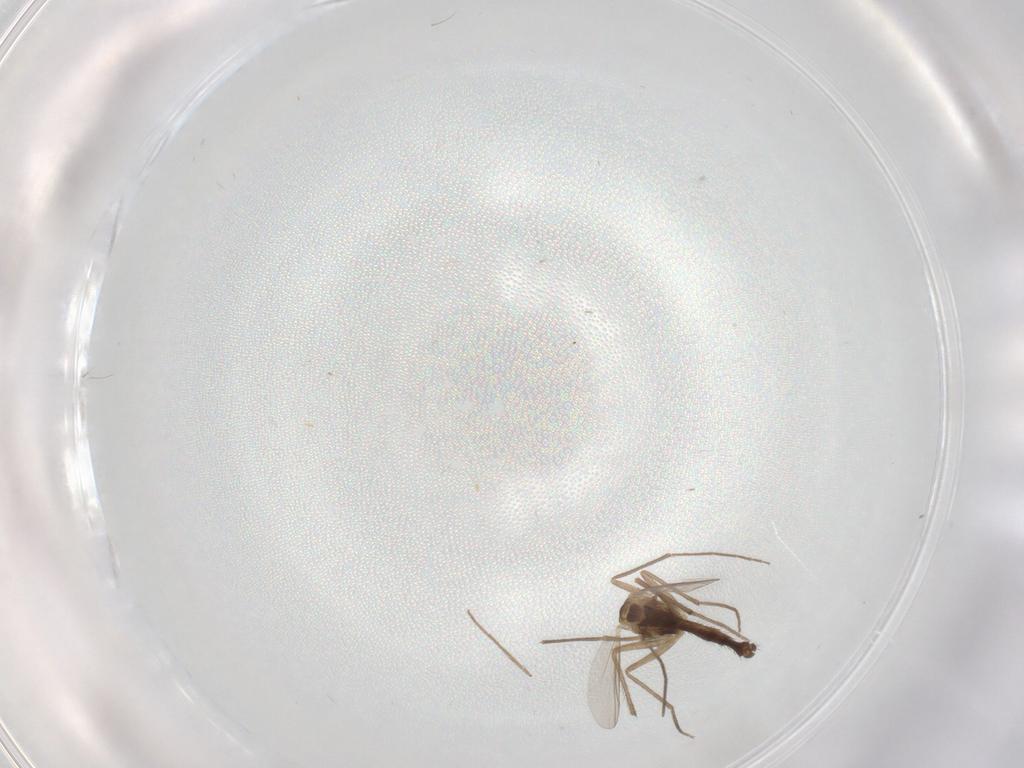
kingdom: Animalia
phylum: Arthropoda
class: Insecta
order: Diptera
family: Chironomidae
